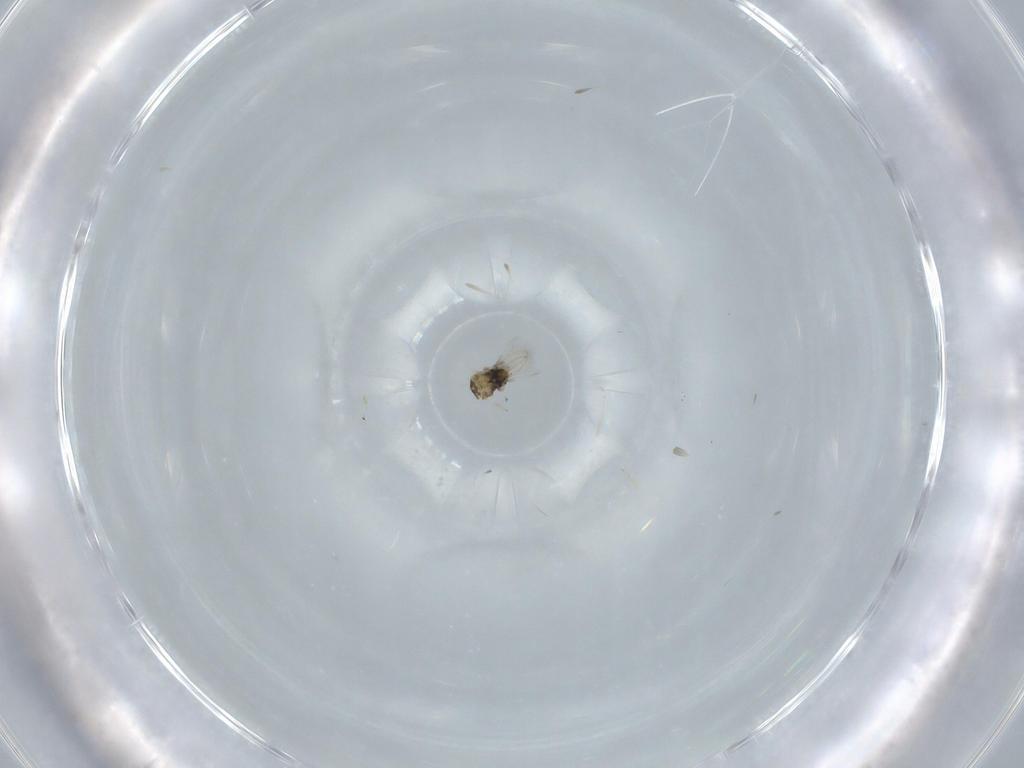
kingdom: Animalia
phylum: Arthropoda
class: Insecta
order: Hymenoptera
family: Aphelinidae
